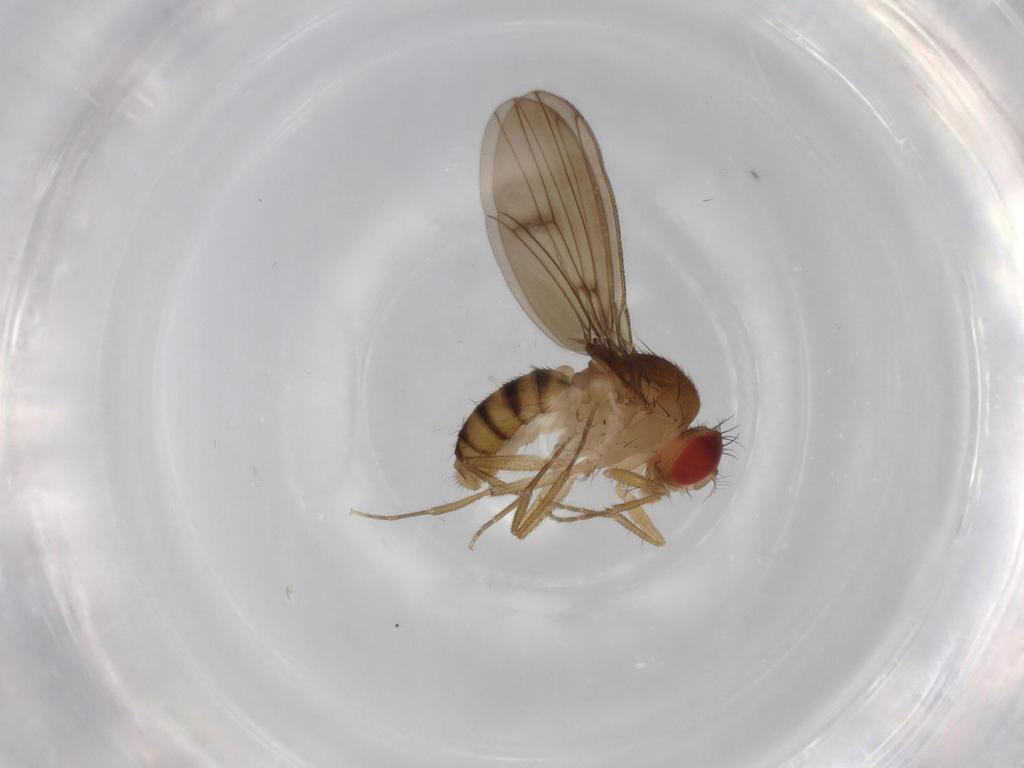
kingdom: Animalia
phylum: Arthropoda
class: Insecta
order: Diptera
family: Drosophilidae
